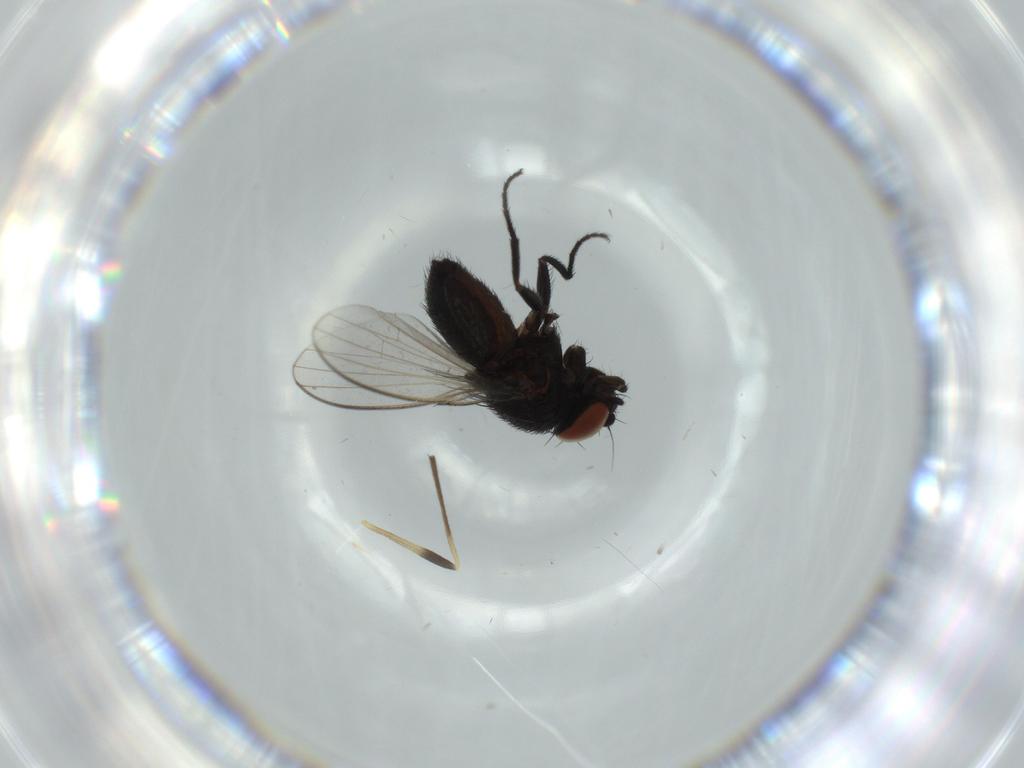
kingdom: Animalia
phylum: Arthropoda
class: Insecta
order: Diptera
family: Milichiidae
